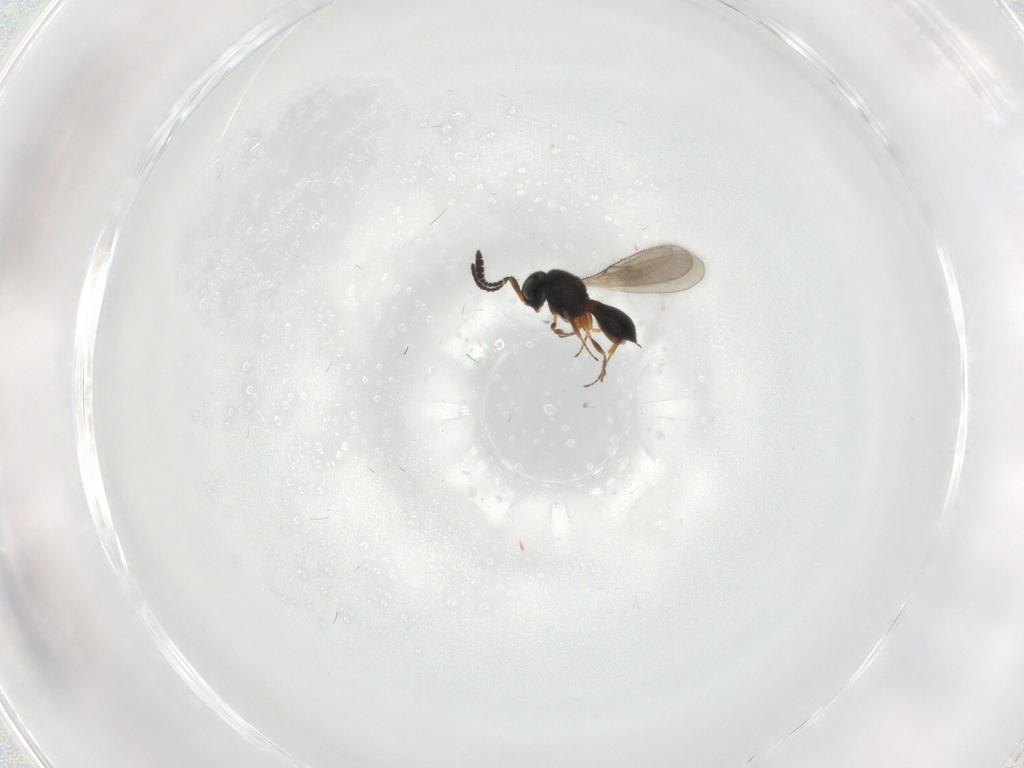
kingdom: Animalia
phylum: Arthropoda
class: Insecta
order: Hymenoptera
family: Scelionidae
